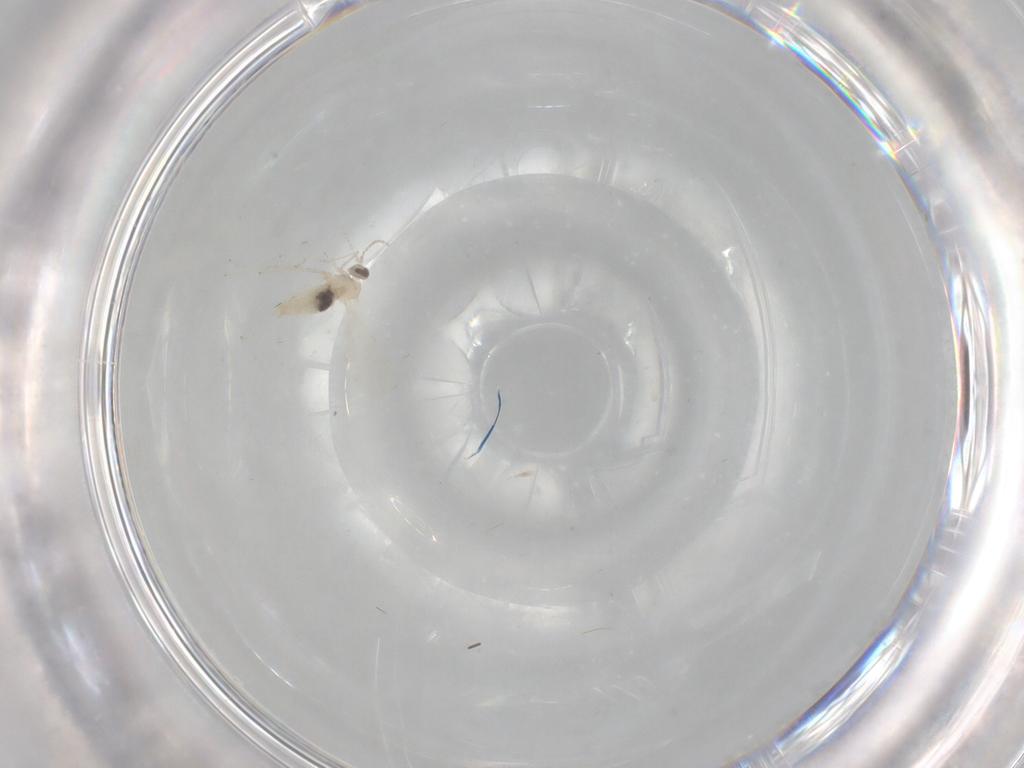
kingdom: Animalia
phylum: Arthropoda
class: Insecta
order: Diptera
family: Cecidomyiidae
